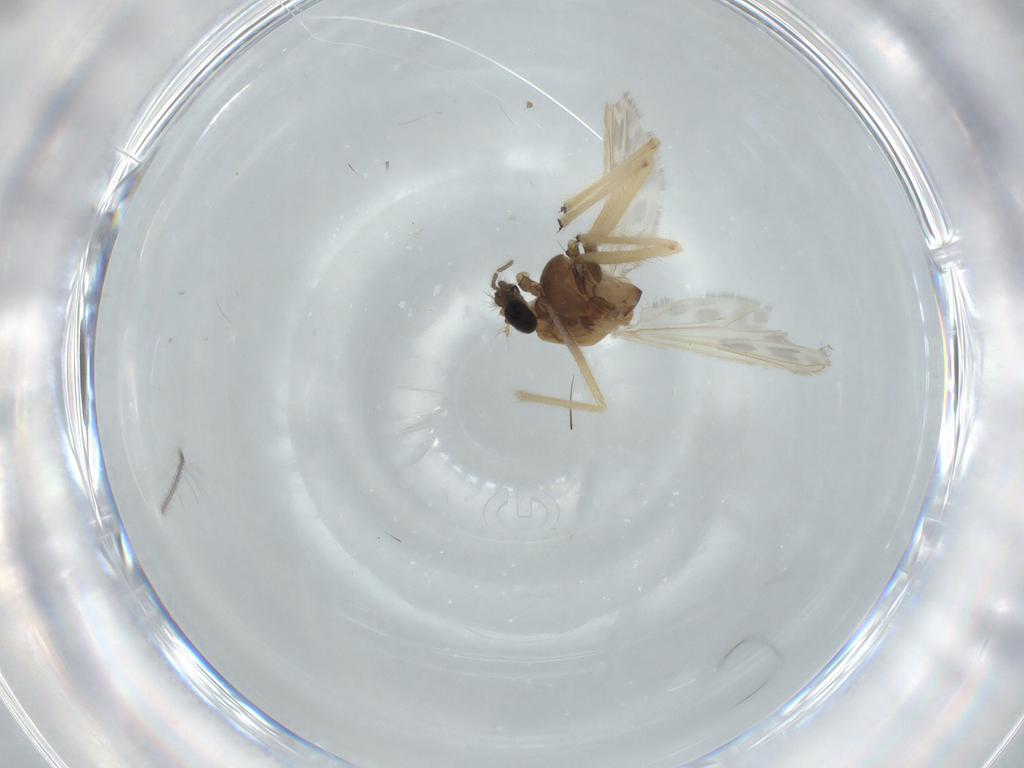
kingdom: Animalia
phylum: Arthropoda
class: Insecta
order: Diptera
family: Chironomidae
